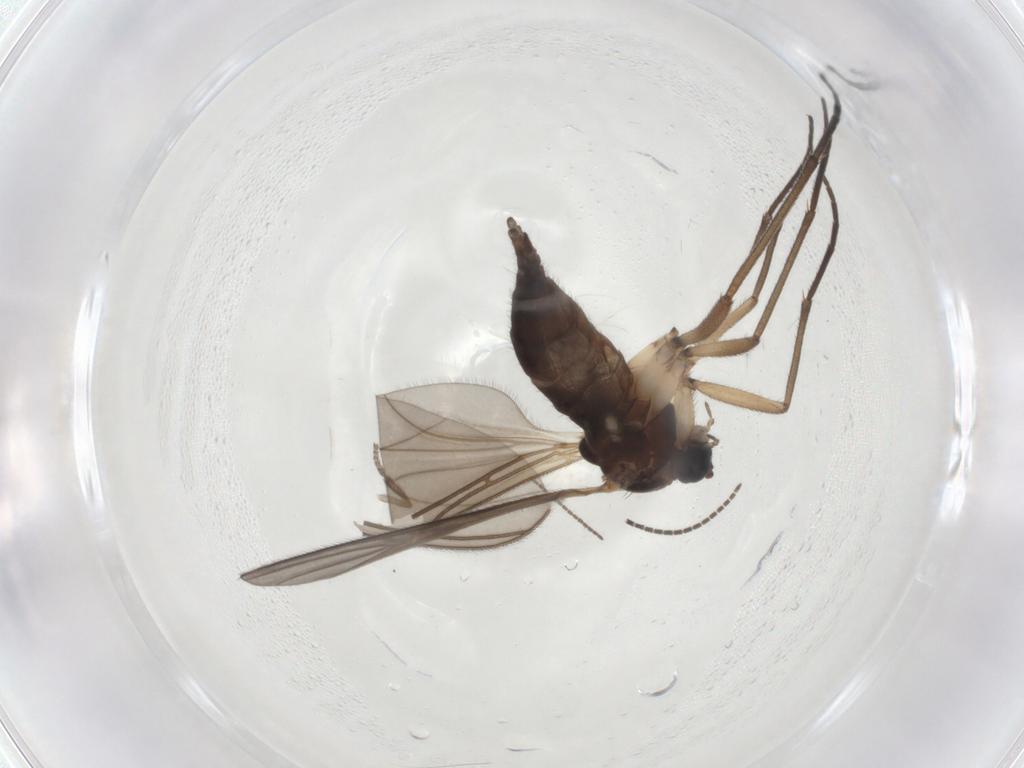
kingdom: Animalia
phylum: Arthropoda
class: Insecta
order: Diptera
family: Sciaridae
